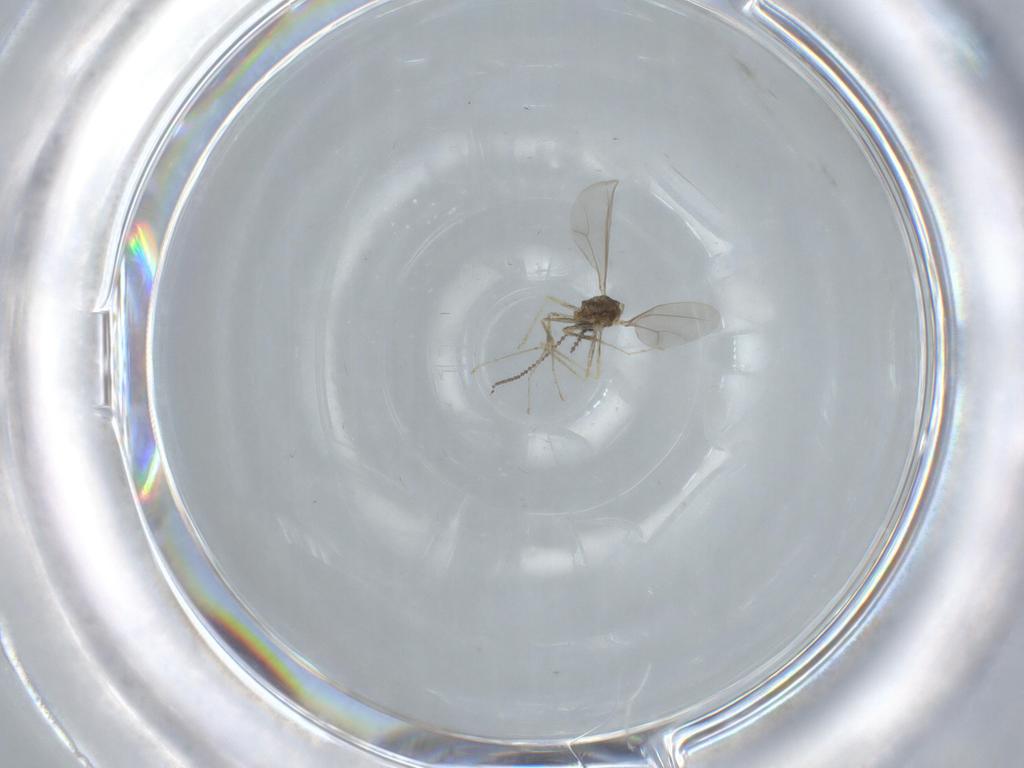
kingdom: Animalia
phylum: Arthropoda
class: Insecta
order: Diptera
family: Cecidomyiidae
